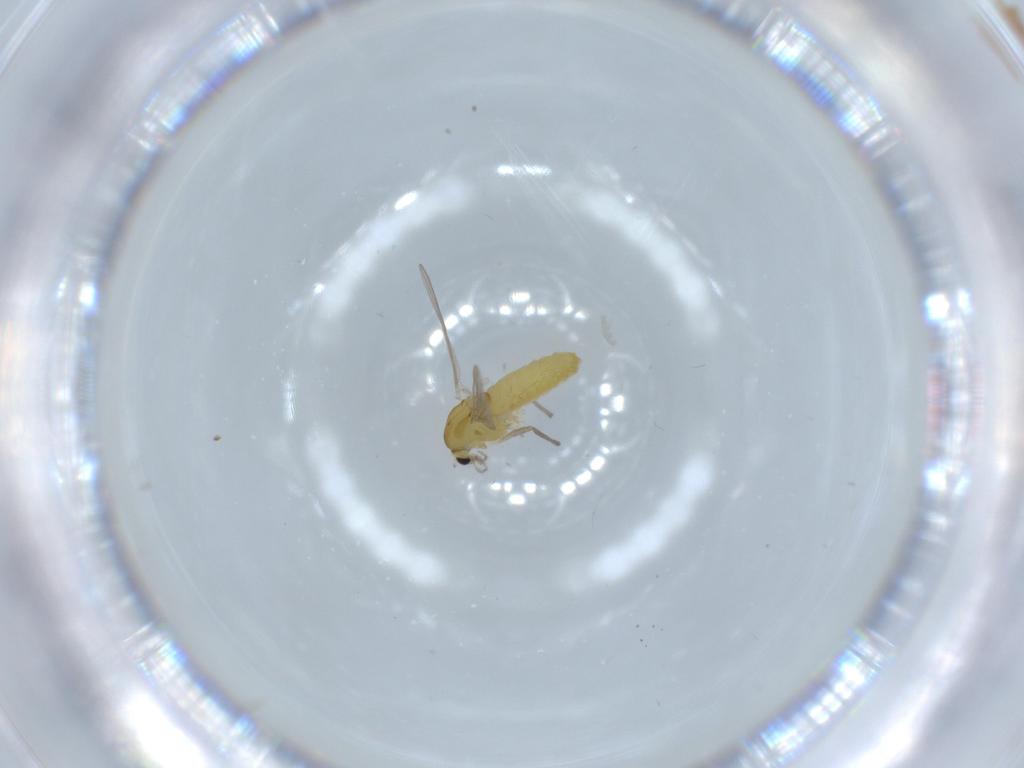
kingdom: Animalia
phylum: Arthropoda
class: Insecta
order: Diptera
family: Chironomidae
